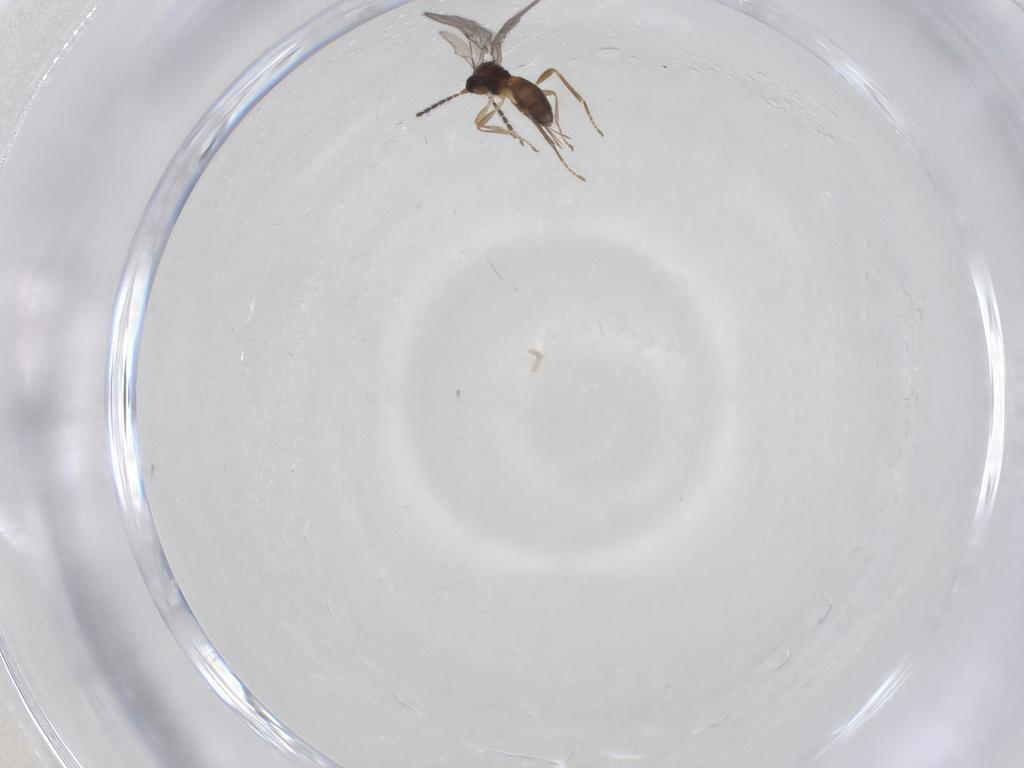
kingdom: Animalia
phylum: Arthropoda
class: Insecta
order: Hymenoptera
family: Braconidae
